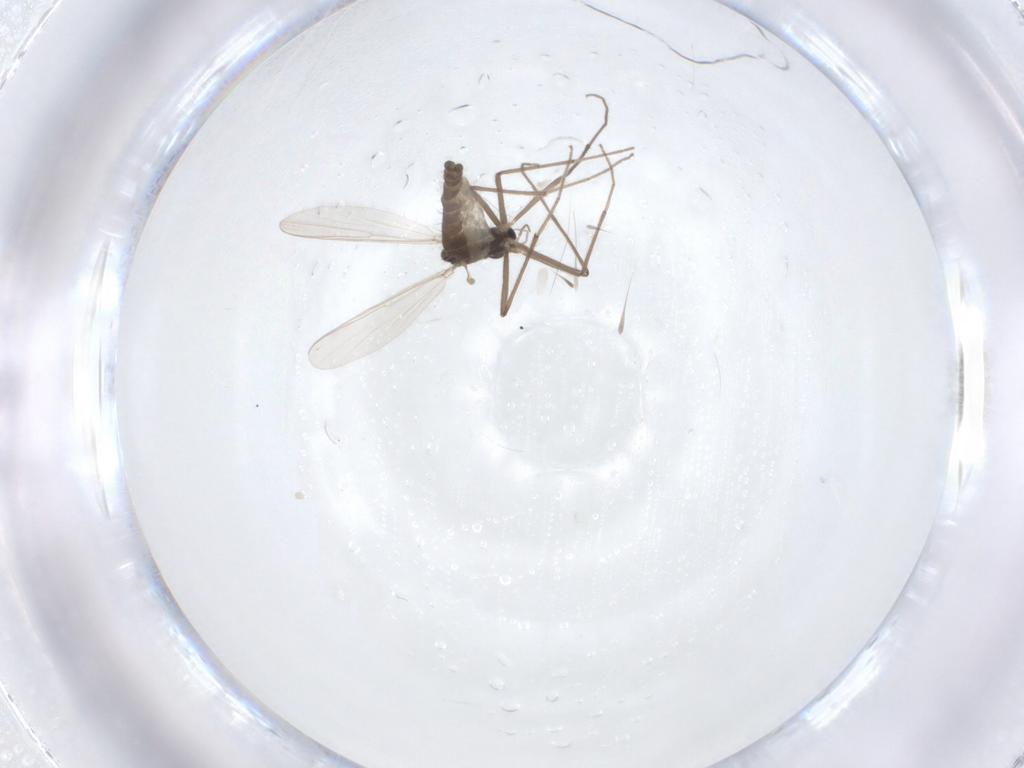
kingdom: Animalia
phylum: Arthropoda
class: Insecta
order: Diptera
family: Chironomidae
